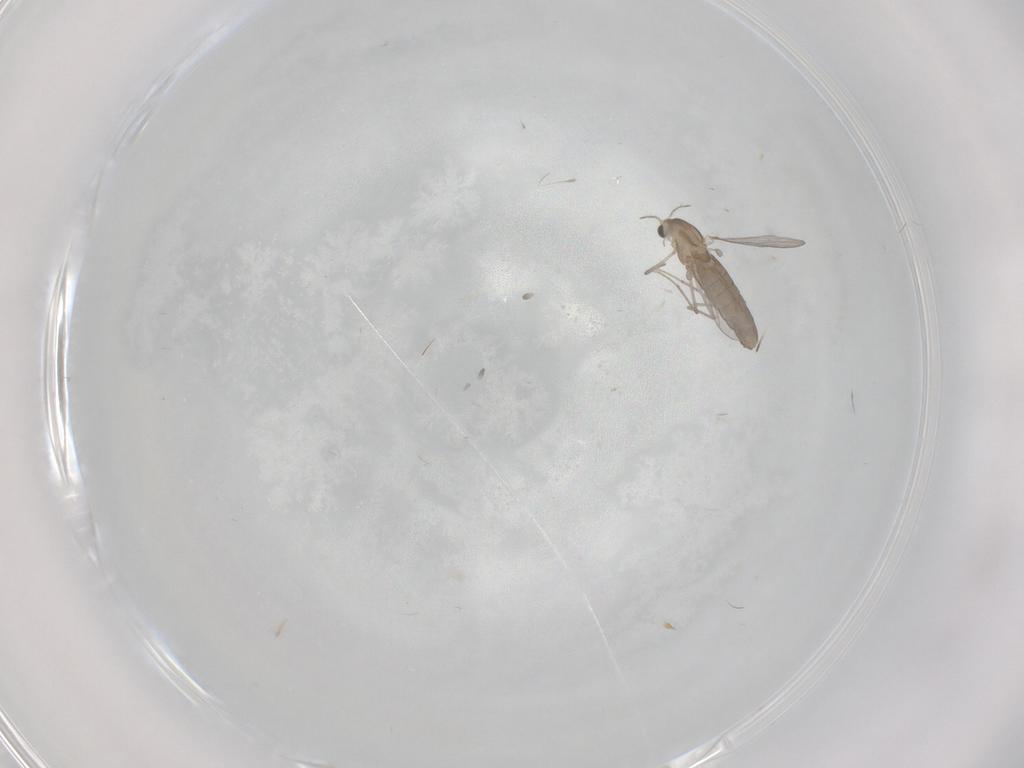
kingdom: Animalia
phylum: Arthropoda
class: Insecta
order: Diptera
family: Chironomidae
